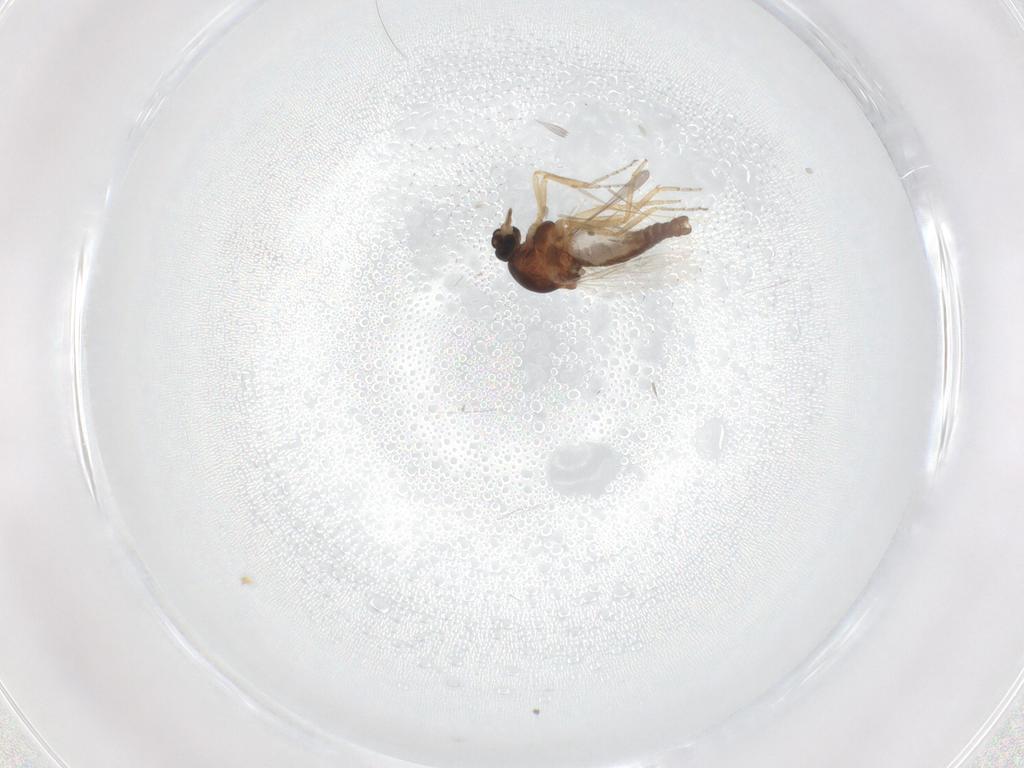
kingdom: Animalia
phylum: Arthropoda
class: Insecta
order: Diptera
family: Ceratopogonidae
